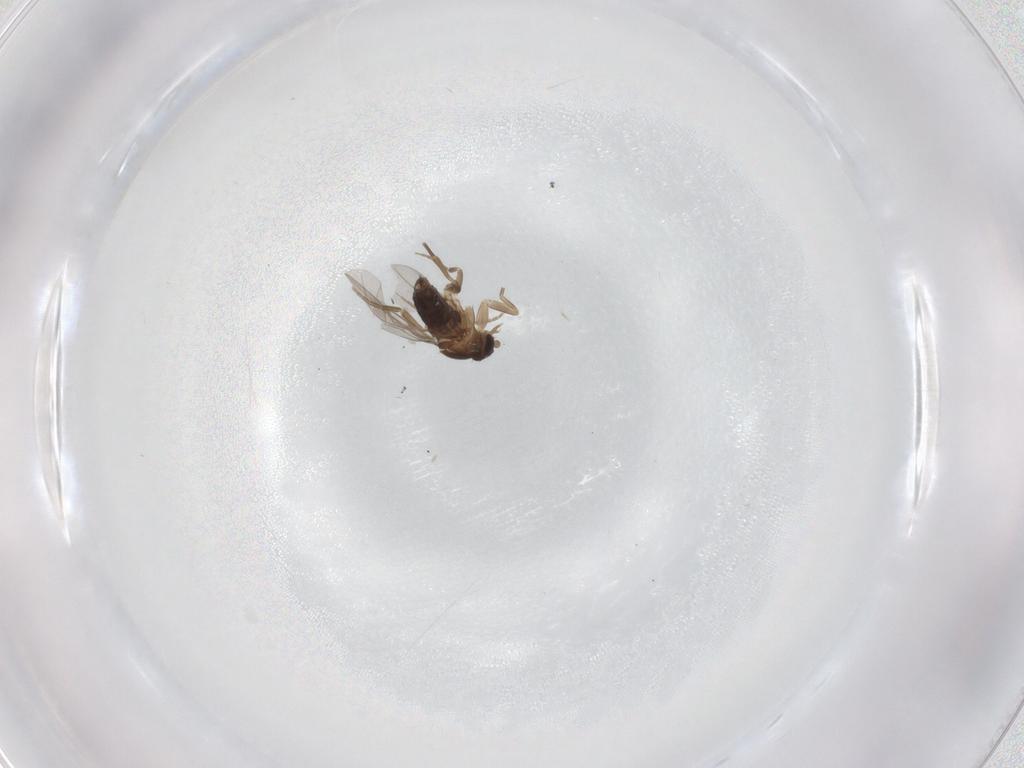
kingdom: Animalia
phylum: Arthropoda
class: Insecta
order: Diptera
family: Phoridae
